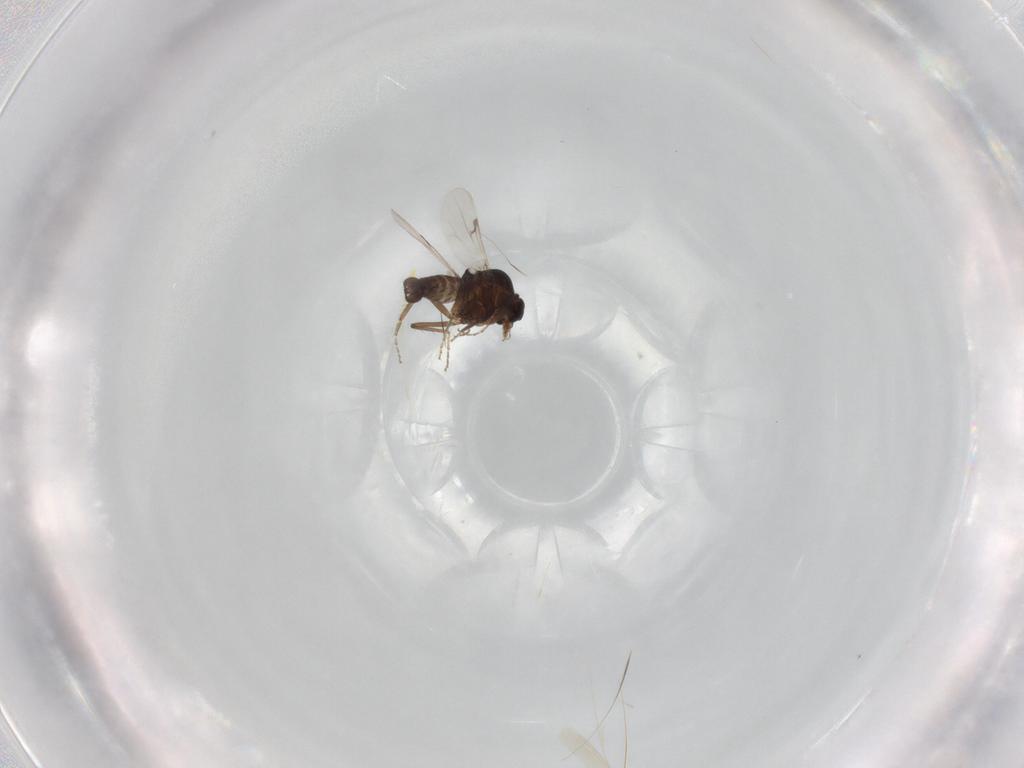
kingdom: Animalia
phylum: Arthropoda
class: Insecta
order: Diptera
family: Ceratopogonidae
